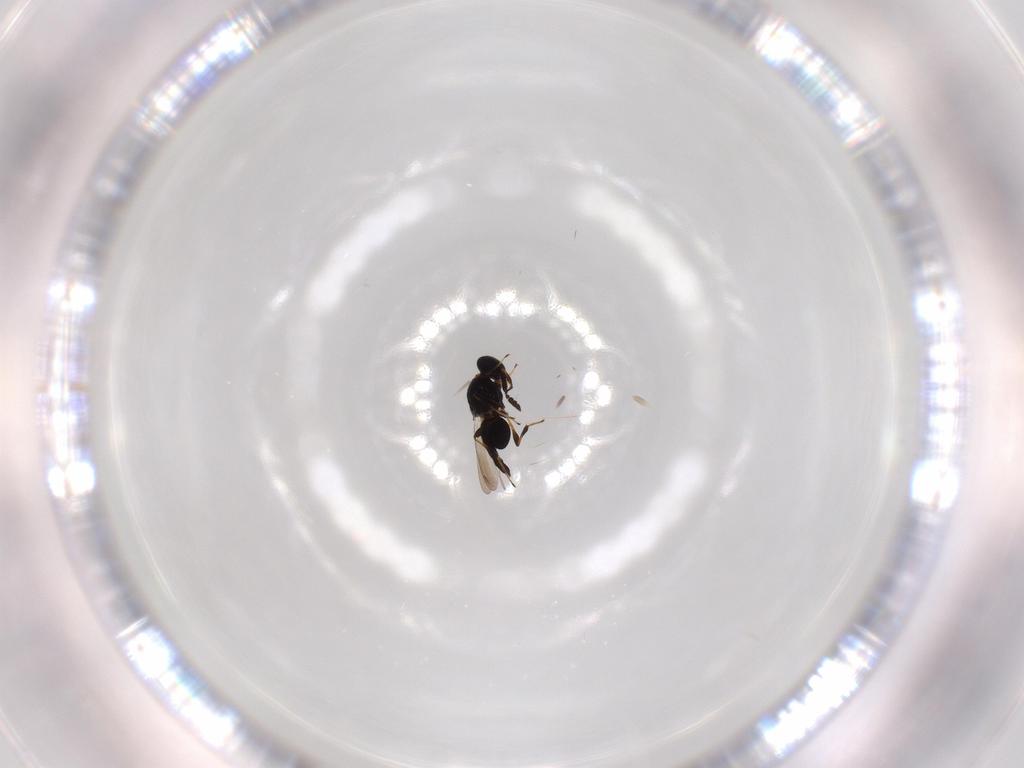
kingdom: Animalia
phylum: Arthropoda
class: Insecta
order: Hymenoptera
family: Platygastridae
